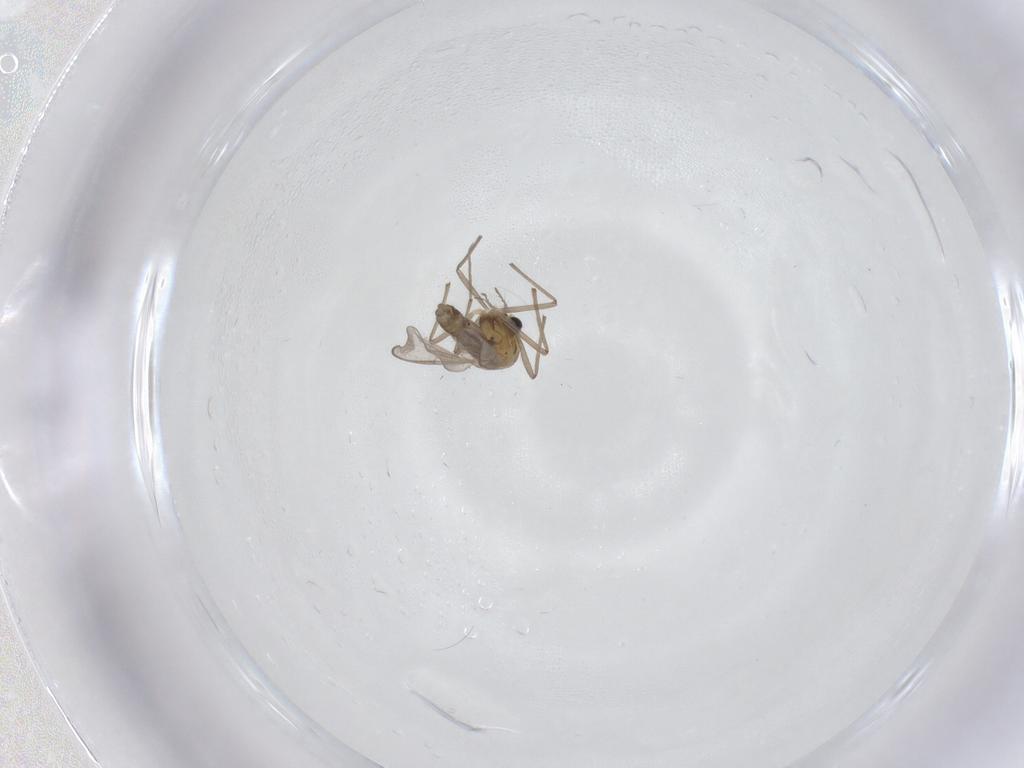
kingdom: Animalia
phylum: Arthropoda
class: Insecta
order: Diptera
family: Chironomidae
